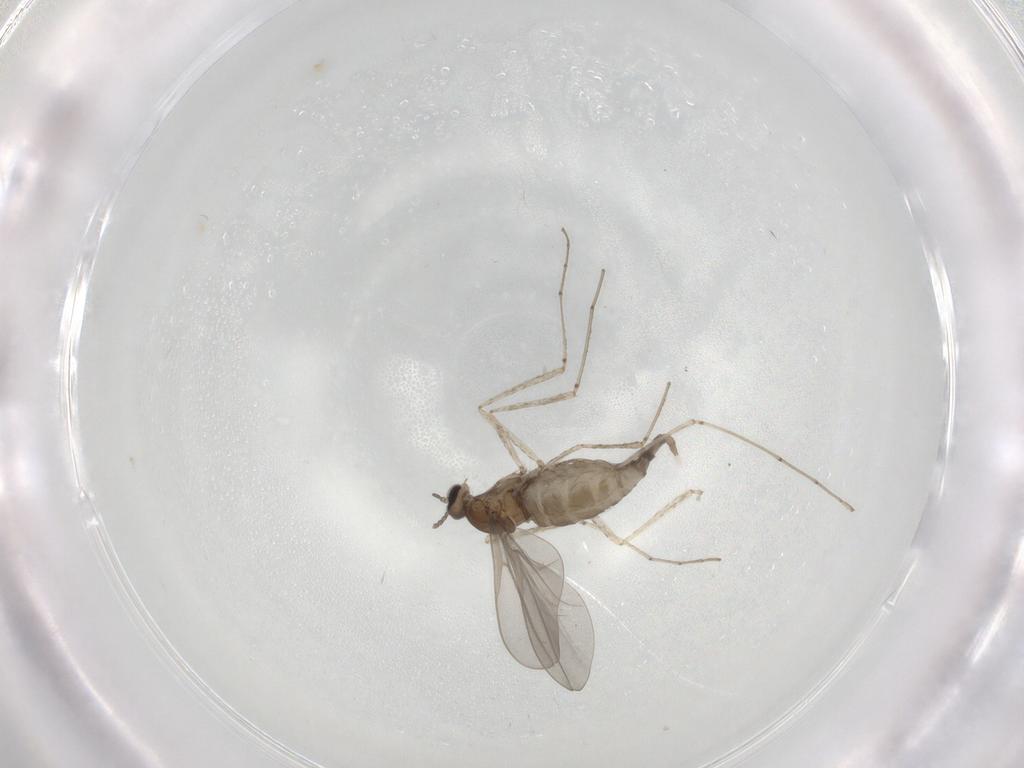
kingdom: Animalia
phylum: Arthropoda
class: Insecta
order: Diptera
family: Cecidomyiidae
